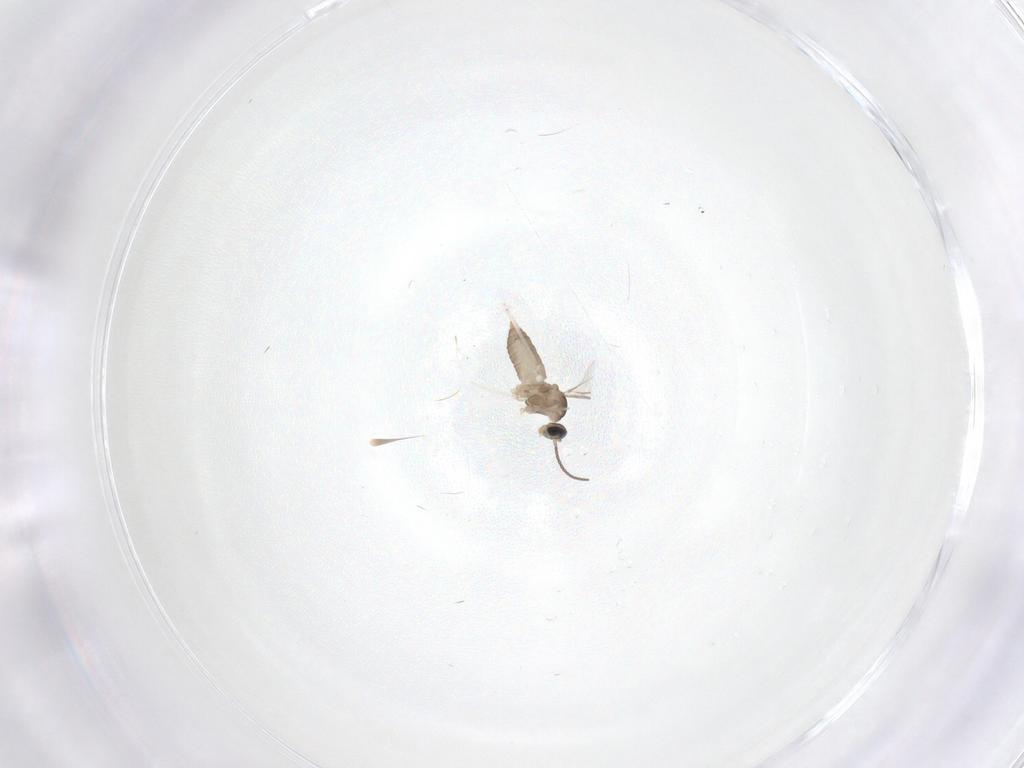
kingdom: Animalia
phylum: Arthropoda
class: Insecta
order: Diptera
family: Cecidomyiidae
